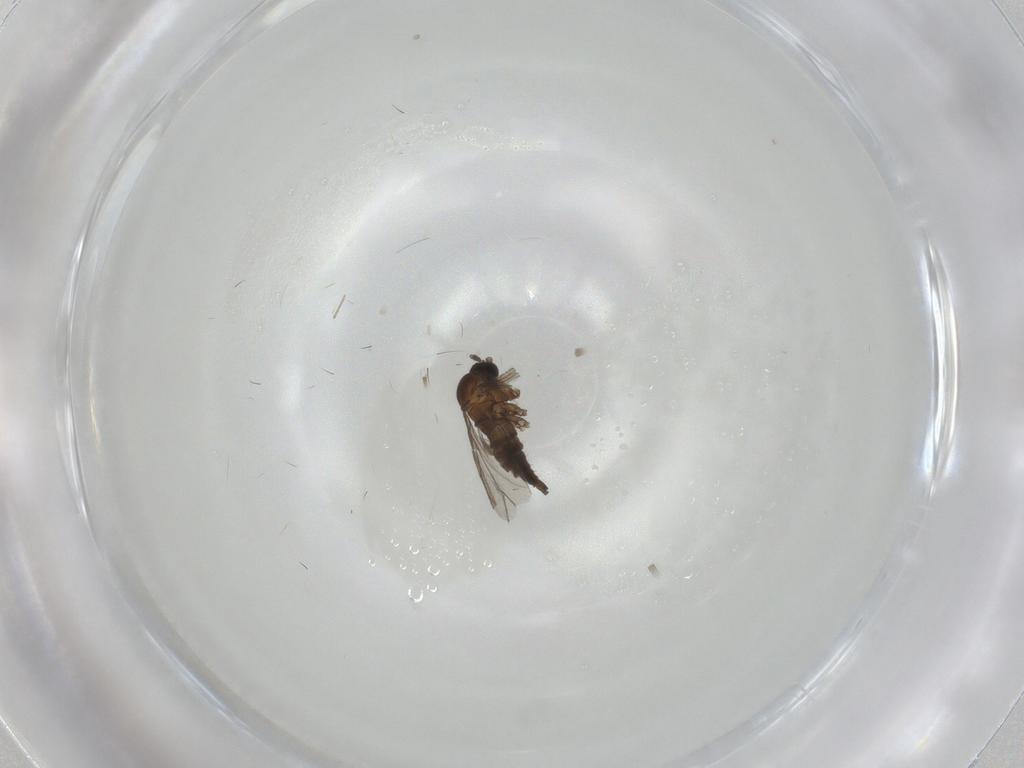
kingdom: Animalia
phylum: Arthropoda
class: Insecta
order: Diptera
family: Sciaridae
